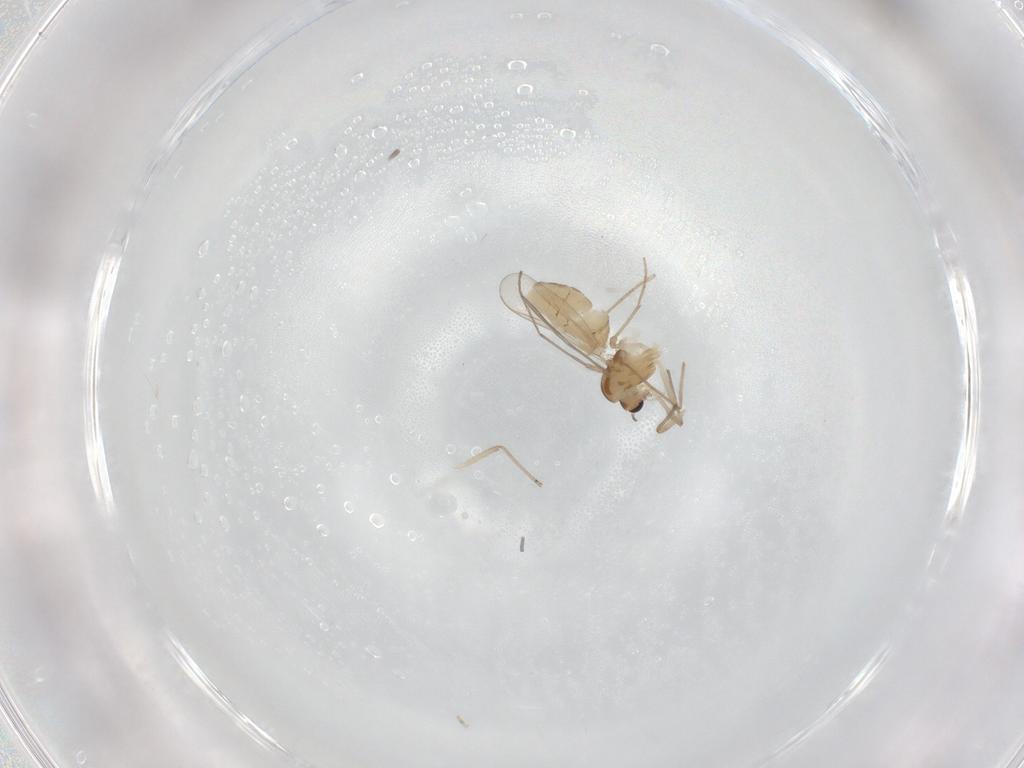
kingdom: Animalia
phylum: Arthropoda
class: Insecta
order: Diptera
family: Chironomidae
